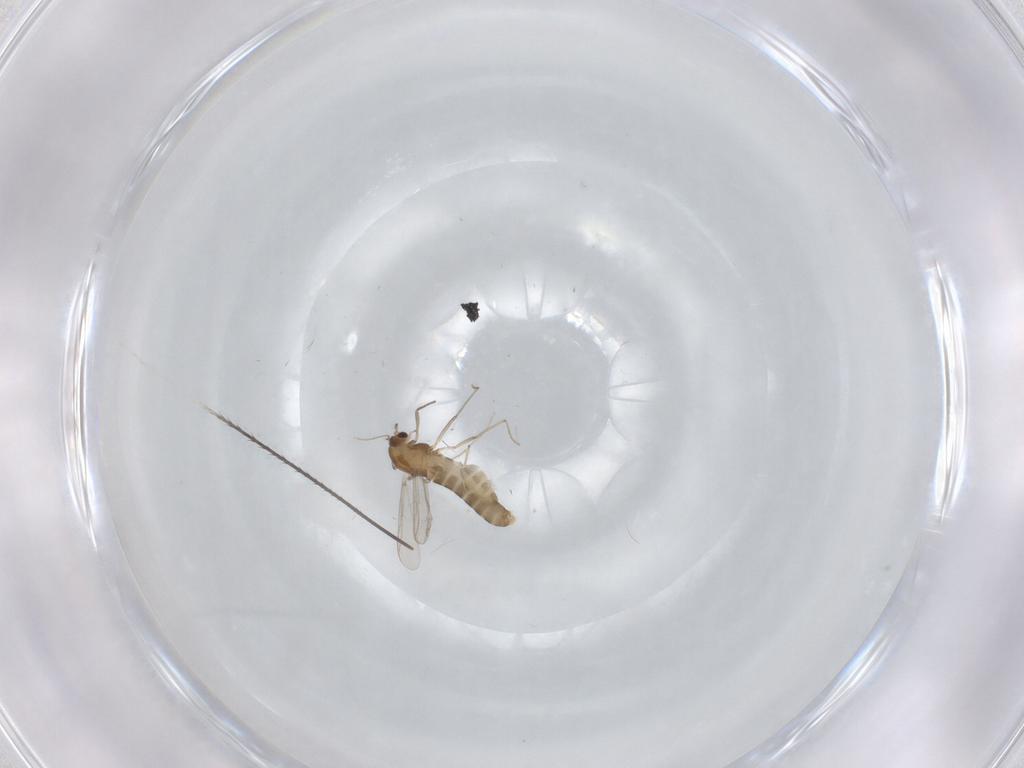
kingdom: Animalia
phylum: Arthropoda
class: Insecta
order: Diptera
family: Chironomidae
